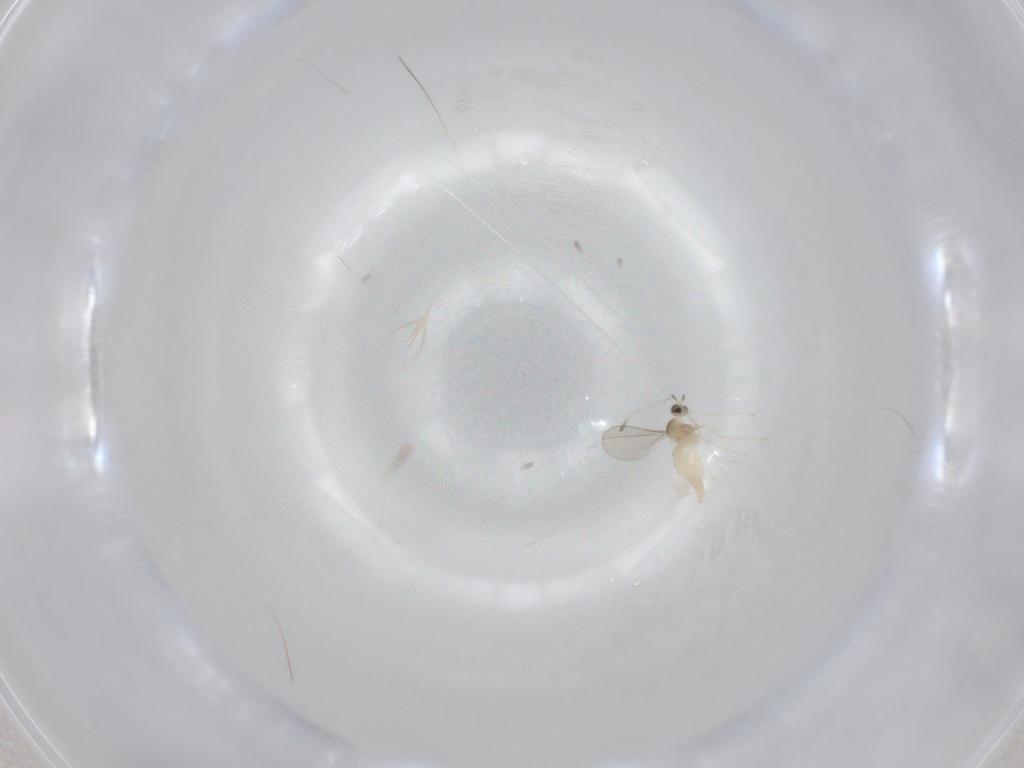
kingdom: Animalia
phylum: Arthropoda
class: Insecta
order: Diptera
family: Cecidomyiidae
